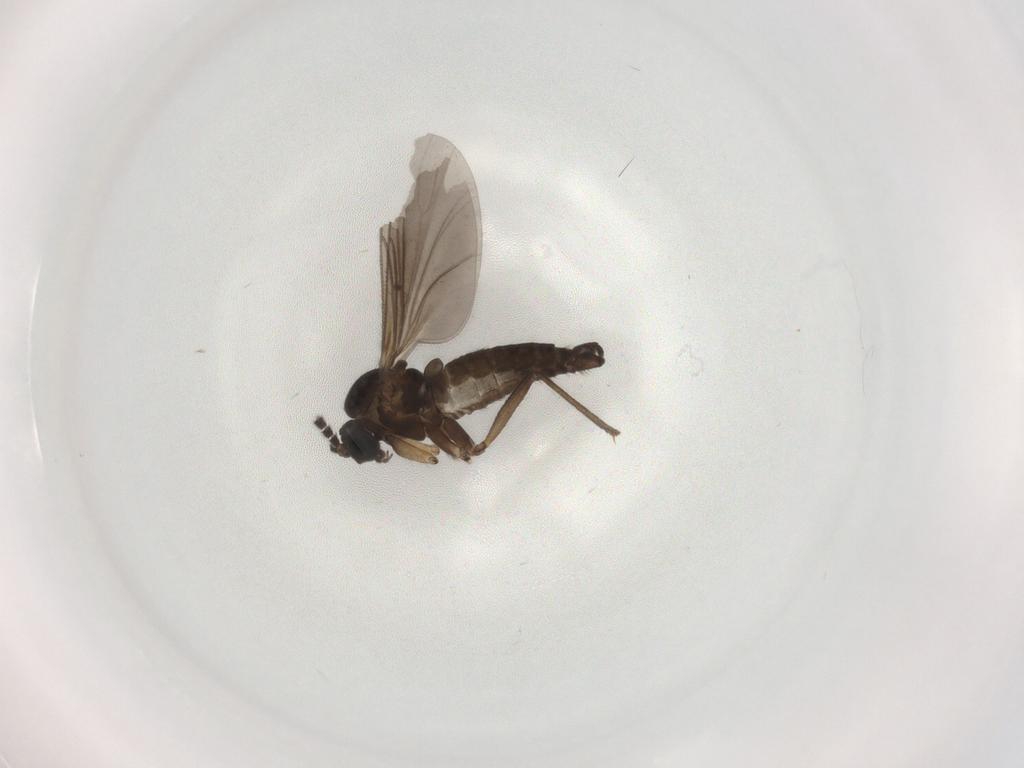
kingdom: Animalia
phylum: Arthropoda
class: Insecta
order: Diptera
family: Sciaridae
